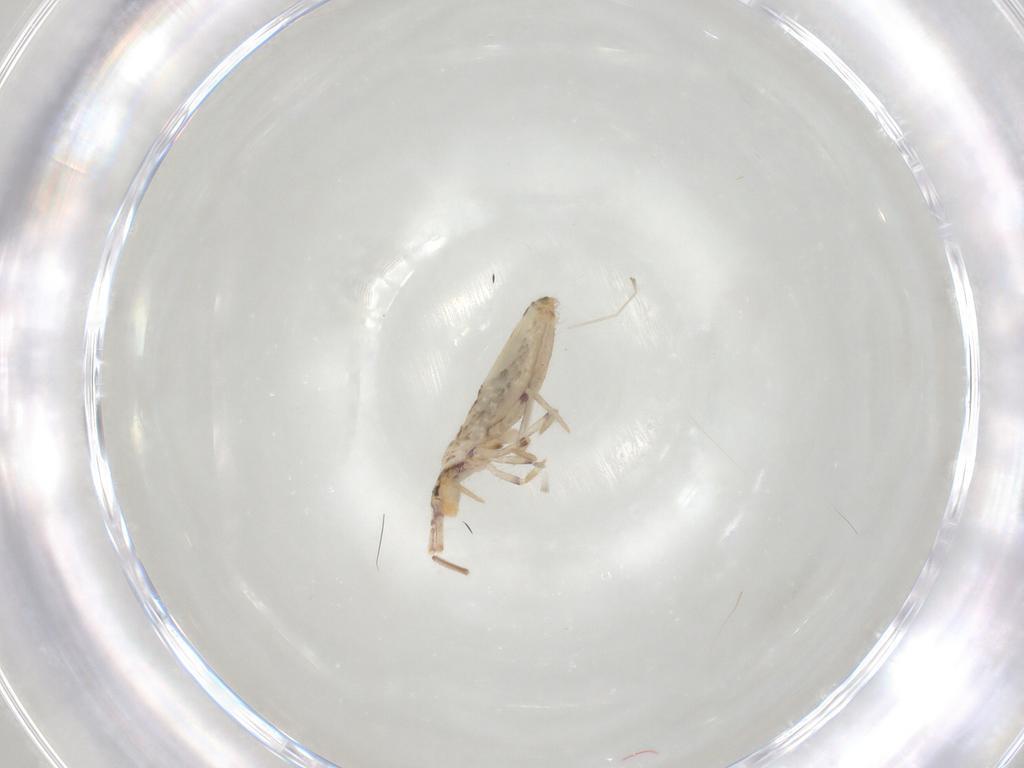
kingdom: Animalia
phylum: Arthropoda
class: Collembola
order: Entomobryomorpha
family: Entomobryidae
